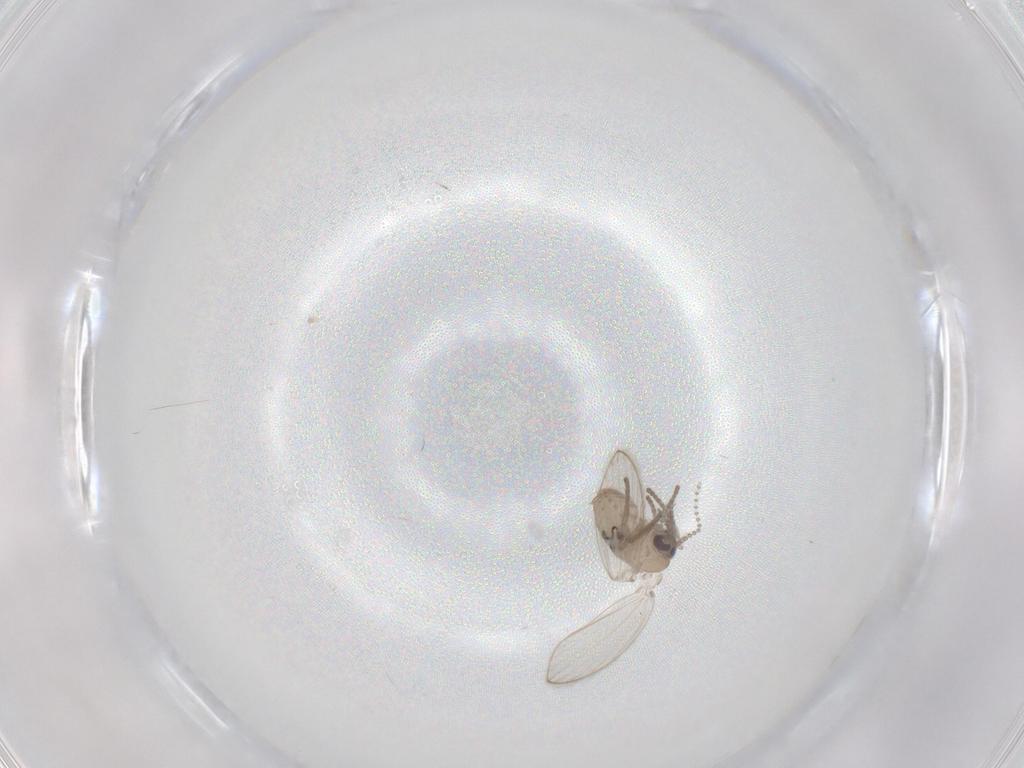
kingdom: Animalia
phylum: Arthropoda
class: Insecta
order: Diptera
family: Psychodidae
